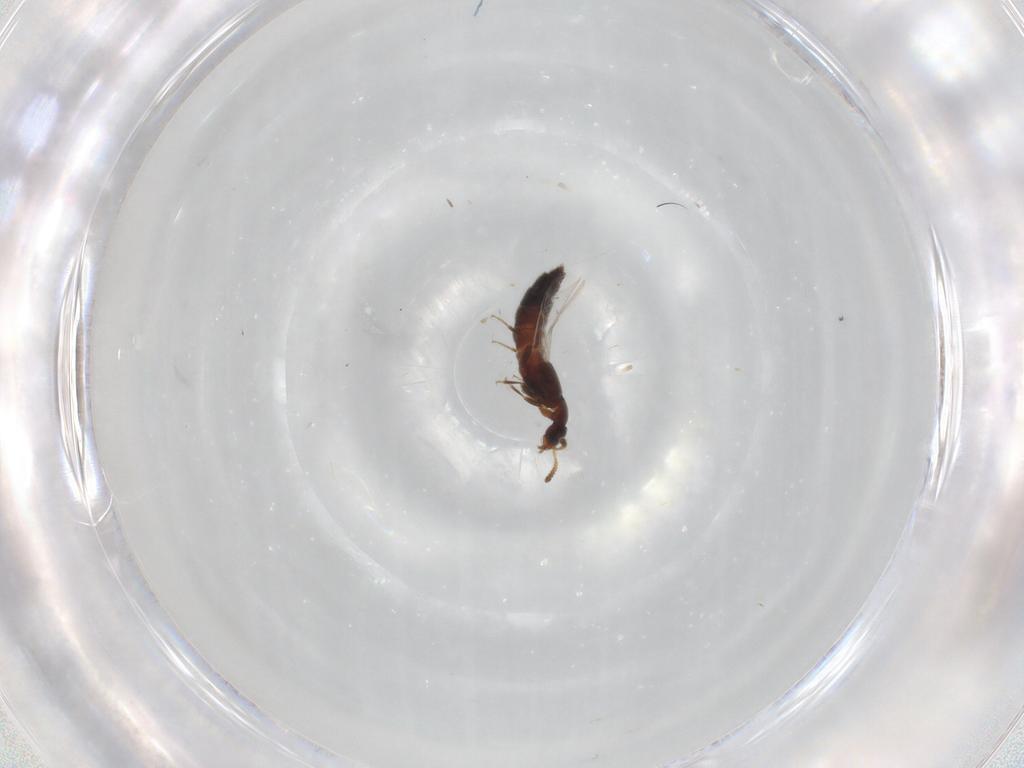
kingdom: Animalia
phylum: Arthropoda
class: Insecta
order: Coleoptera
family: Staphylinidae
